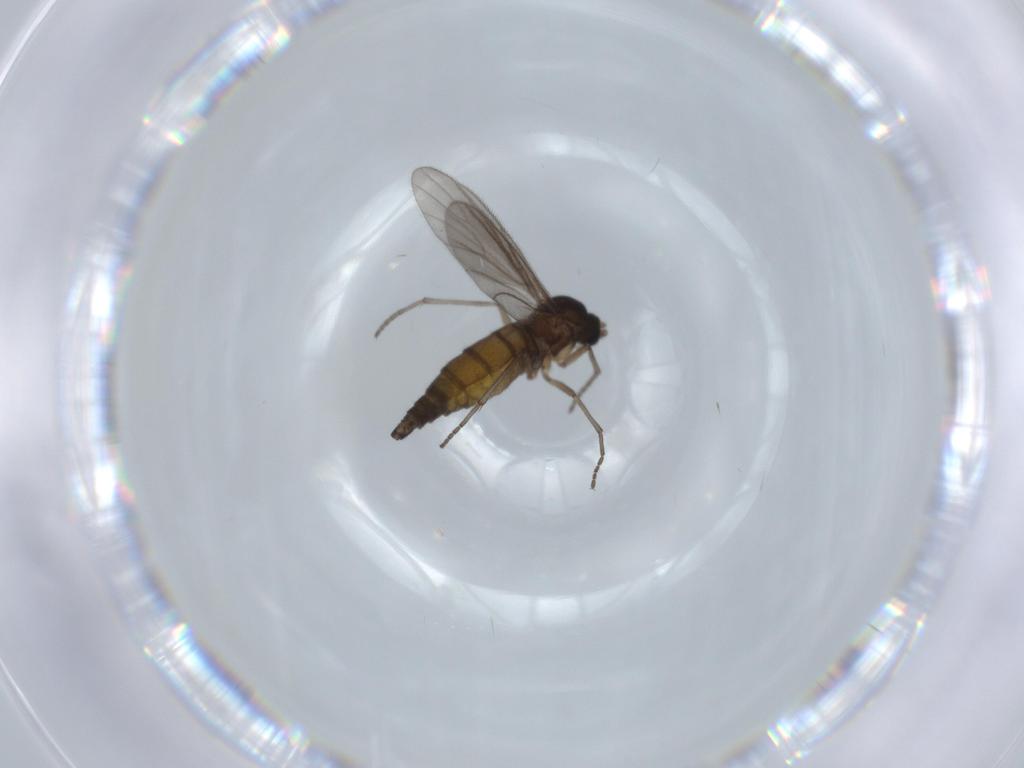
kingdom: Animalia
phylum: Arthropoda
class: Insecta
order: Diptera
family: Sciaridae
